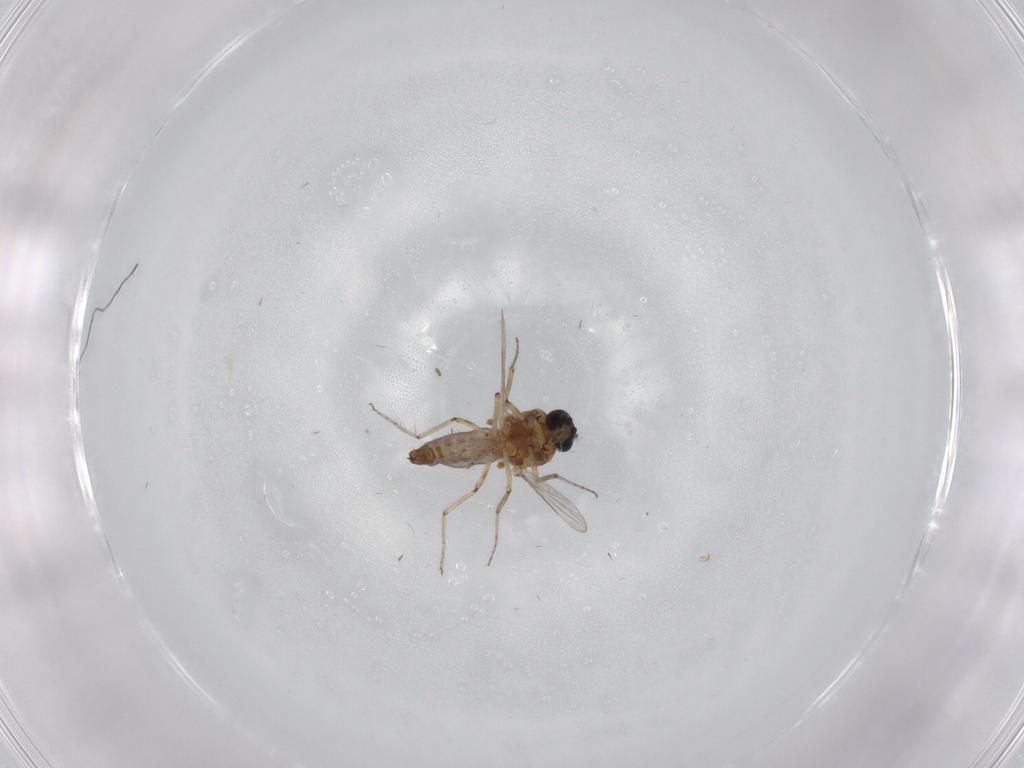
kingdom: Animalia
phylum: Arthropoda
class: Insecta
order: Diptera
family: Ceratopogonidae
